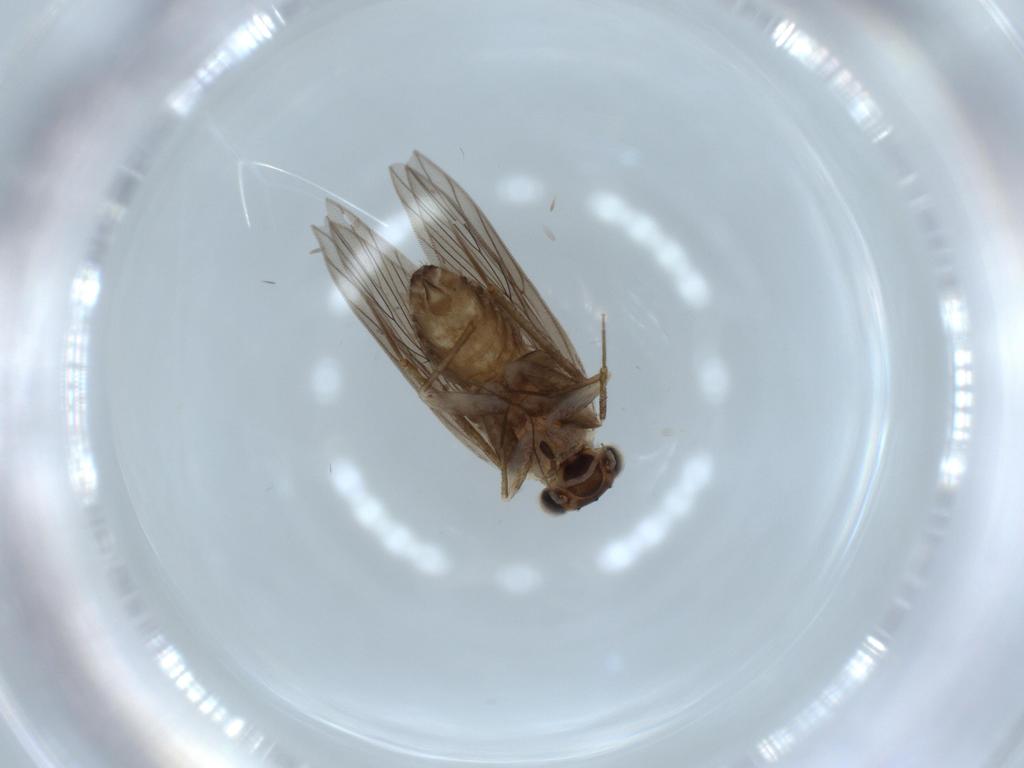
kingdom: Animalia
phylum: Arthropoda
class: Insecta
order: Psocodea
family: Lepidopsocidae
